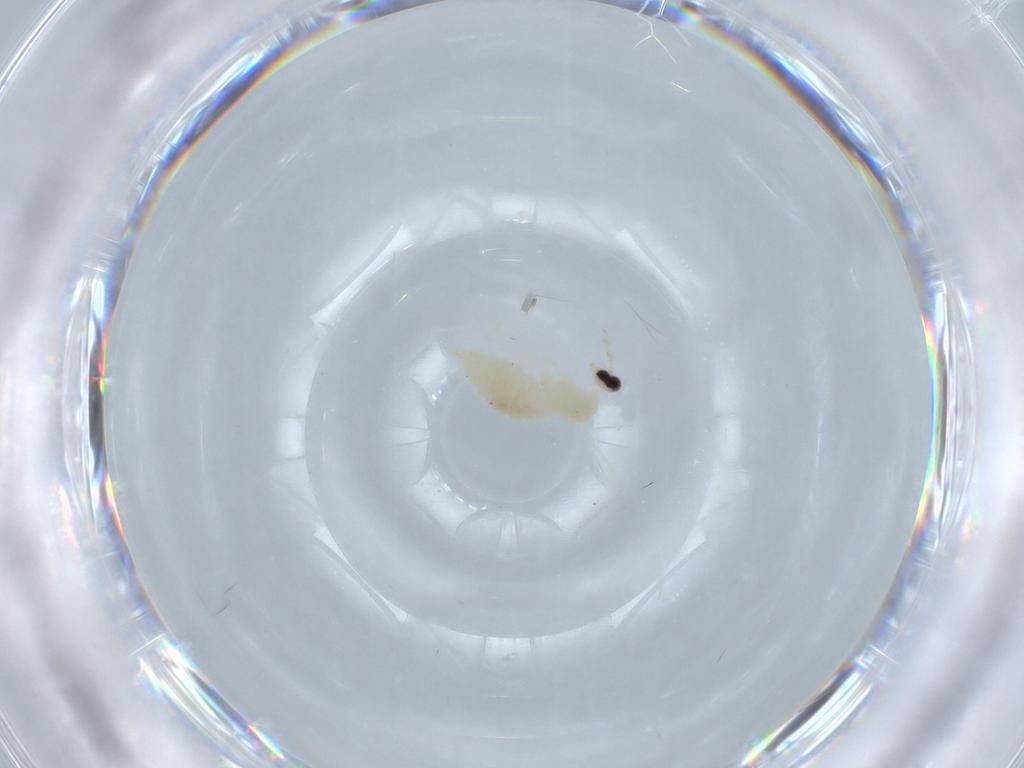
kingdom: Animalia
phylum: Arthropoda
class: Insecta
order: Diptera
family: Cecidomyiidae
